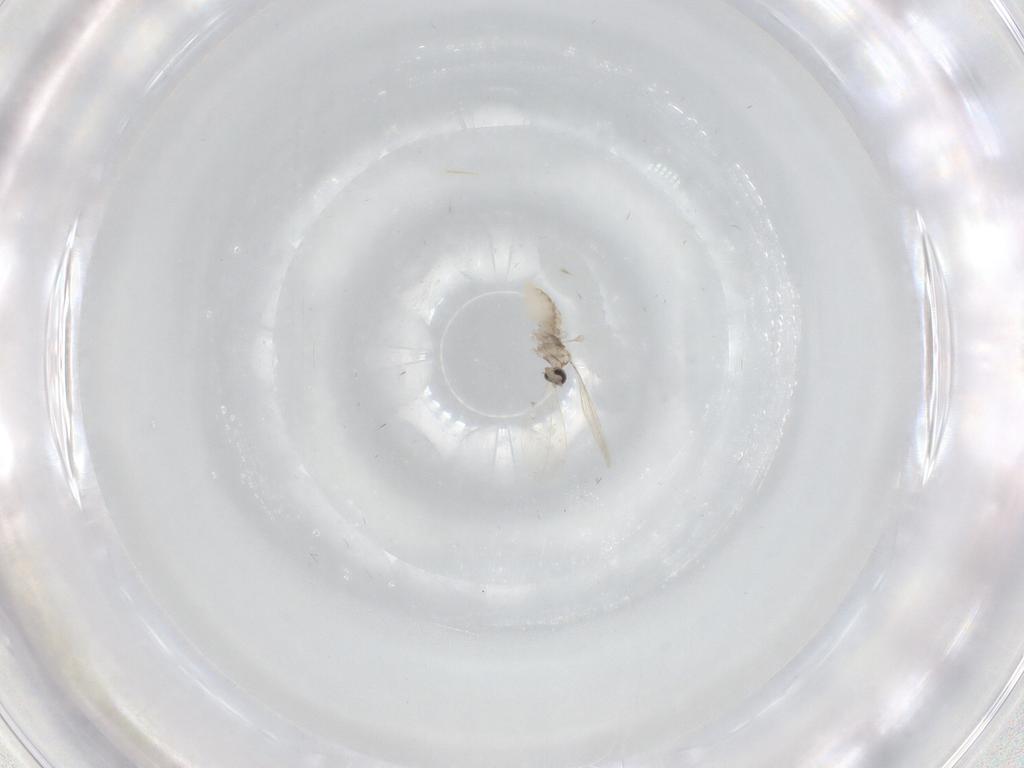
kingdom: Animalia
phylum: Arthropoda
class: Insecta
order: Diptera
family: Cecidomyiidae
